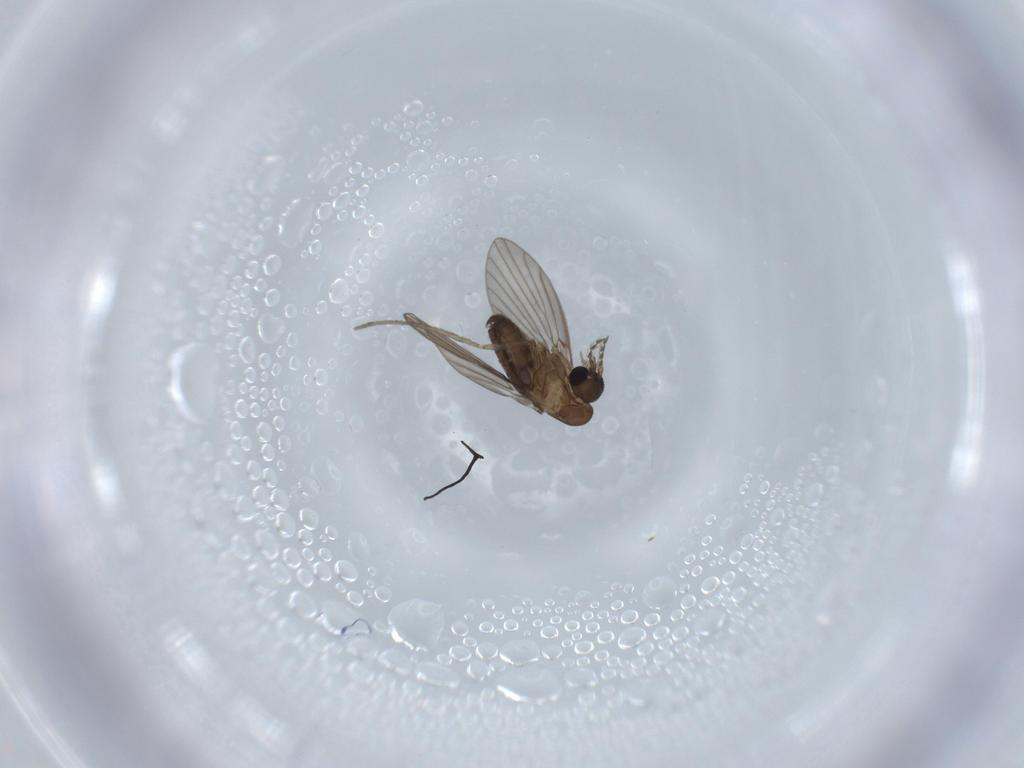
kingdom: Animalia
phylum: Arthropoda
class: Insecta
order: Diptera
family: Psychodidae
